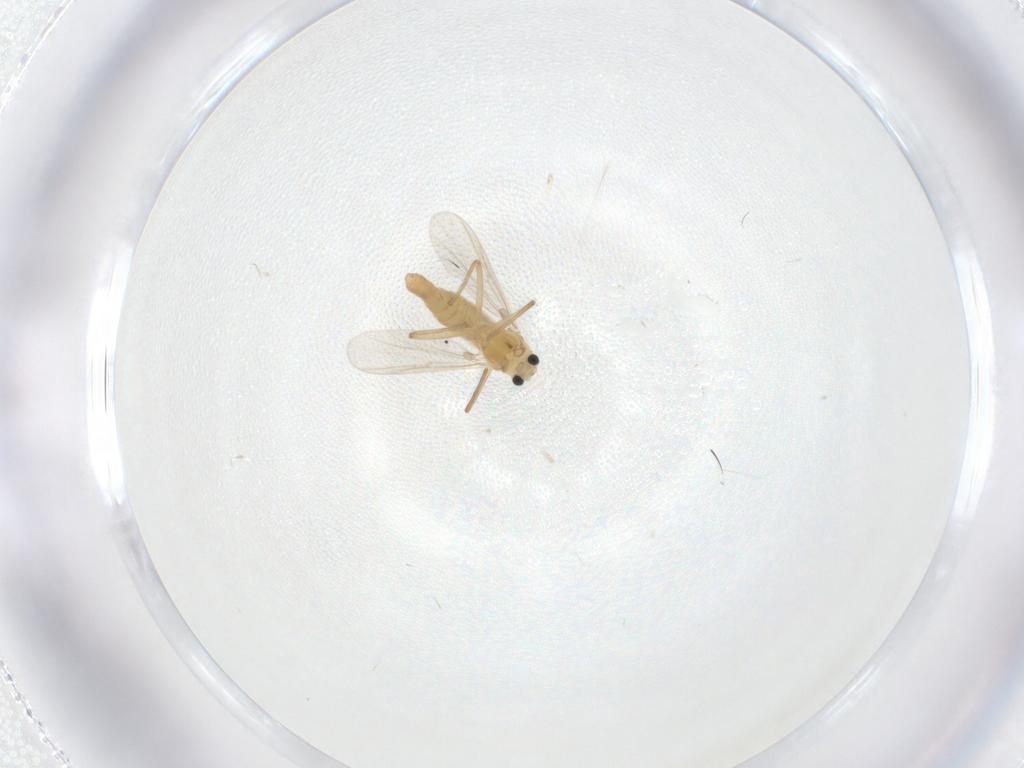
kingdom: Animalia
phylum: Arthropoda
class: Insecta
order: Diptera
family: Chironomidae
